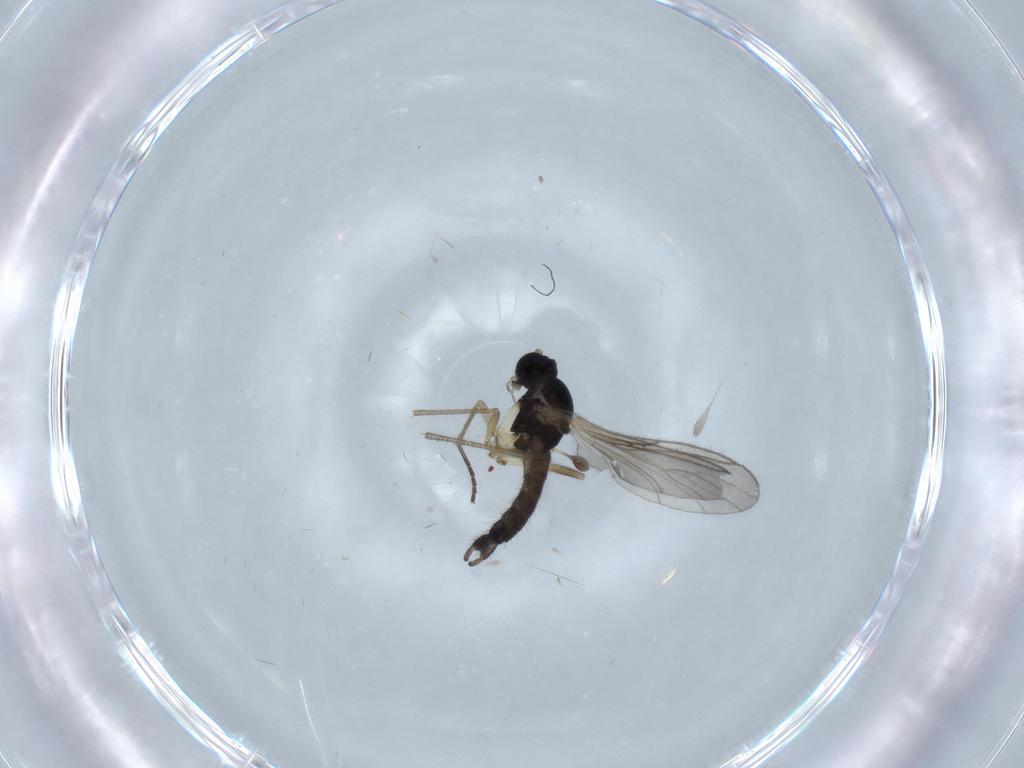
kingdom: Animalia
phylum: Arthropoda
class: Insecta
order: Diptera
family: Sciaridae
